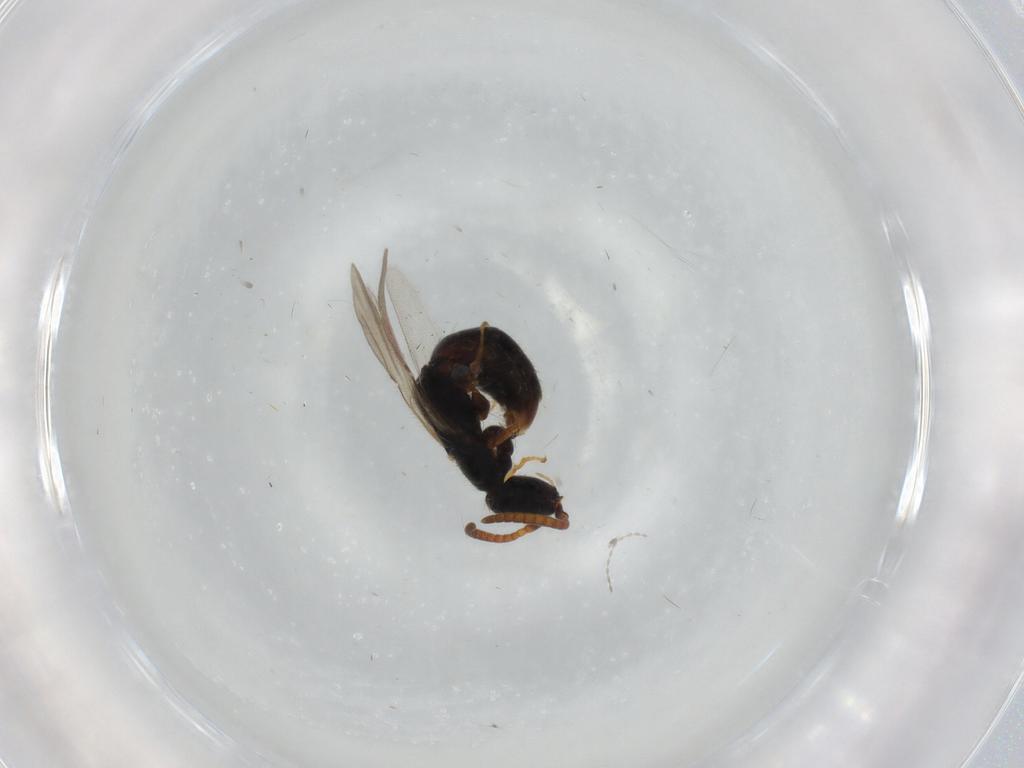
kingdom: Animalia
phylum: Arthropoda
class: Insecta
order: Hymenoptera
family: Bethylidae
